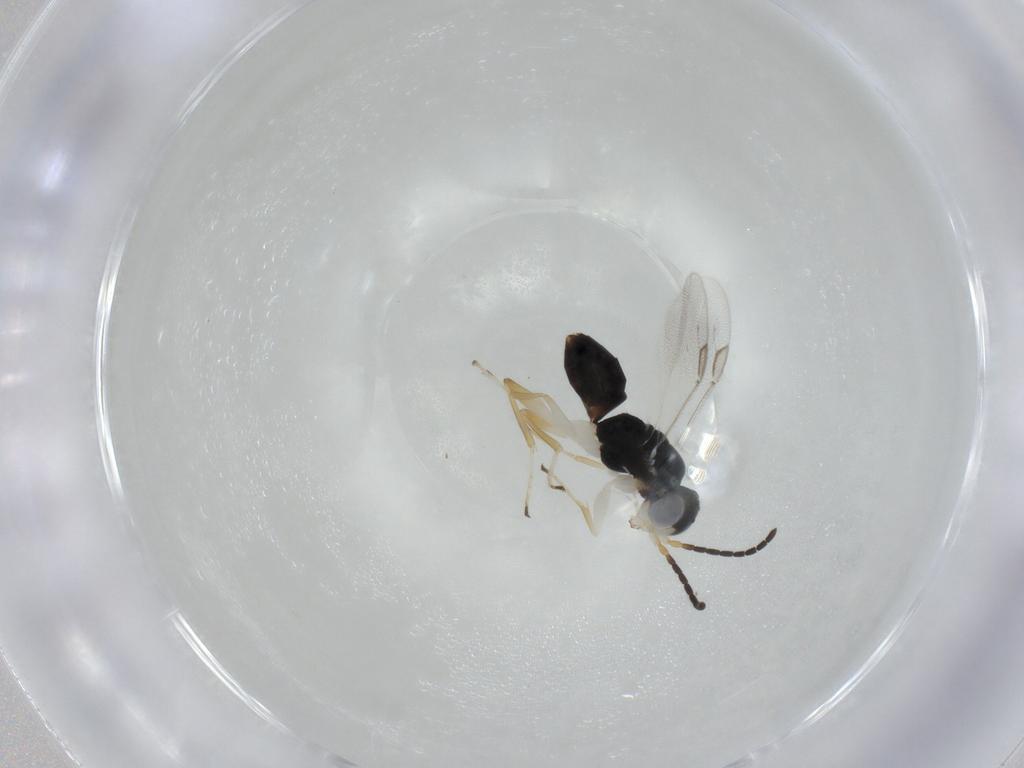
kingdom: Animalia
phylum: Arthropoda
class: Insecta
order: Hymenoptera
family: Dryinidae
